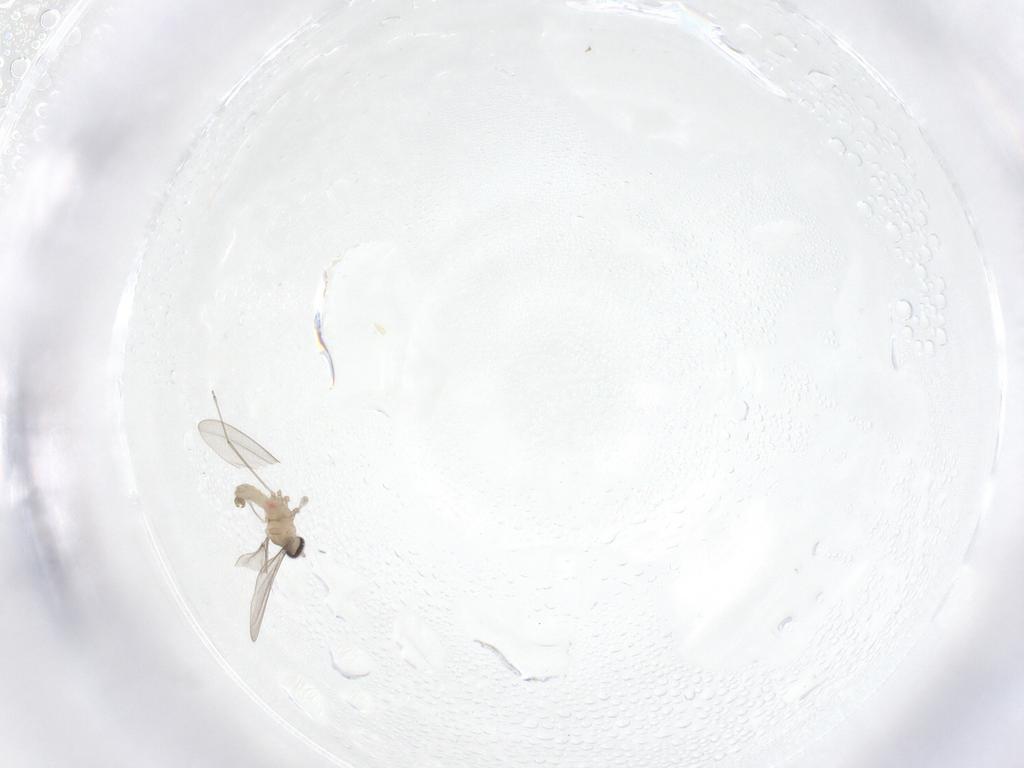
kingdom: Animalia
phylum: Arthropoda
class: Insecta
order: Diptera
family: Cecidomyiidae
